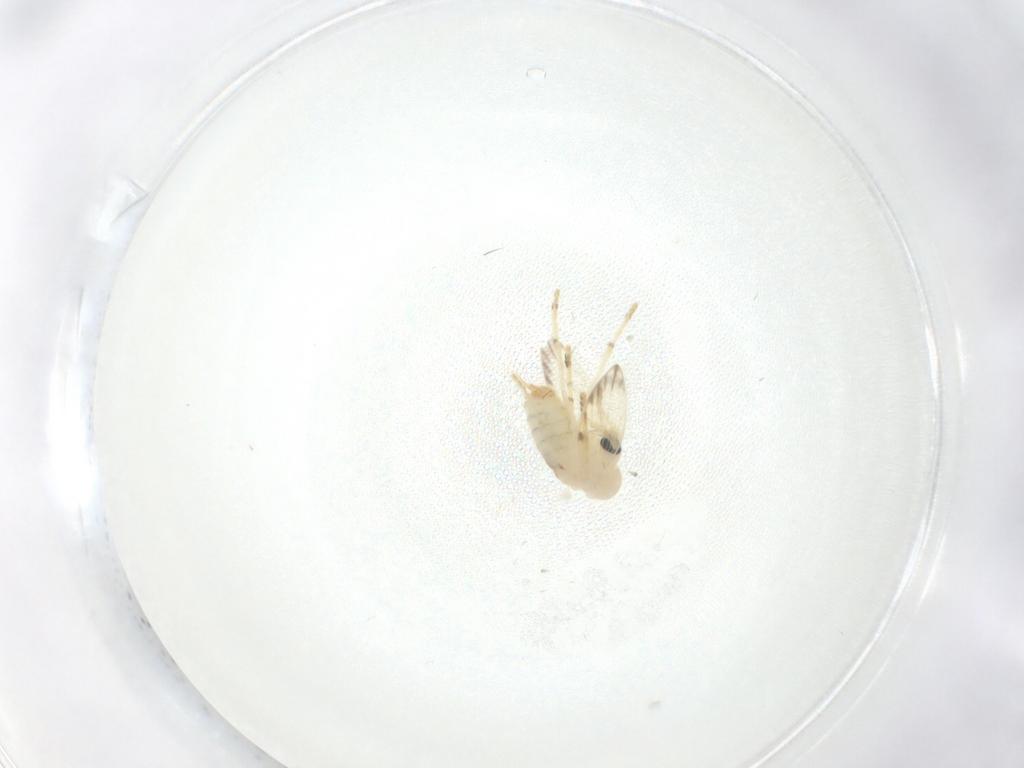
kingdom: Animalia
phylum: Arthropoda
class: Insecta
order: Diptera
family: Psychodidae
